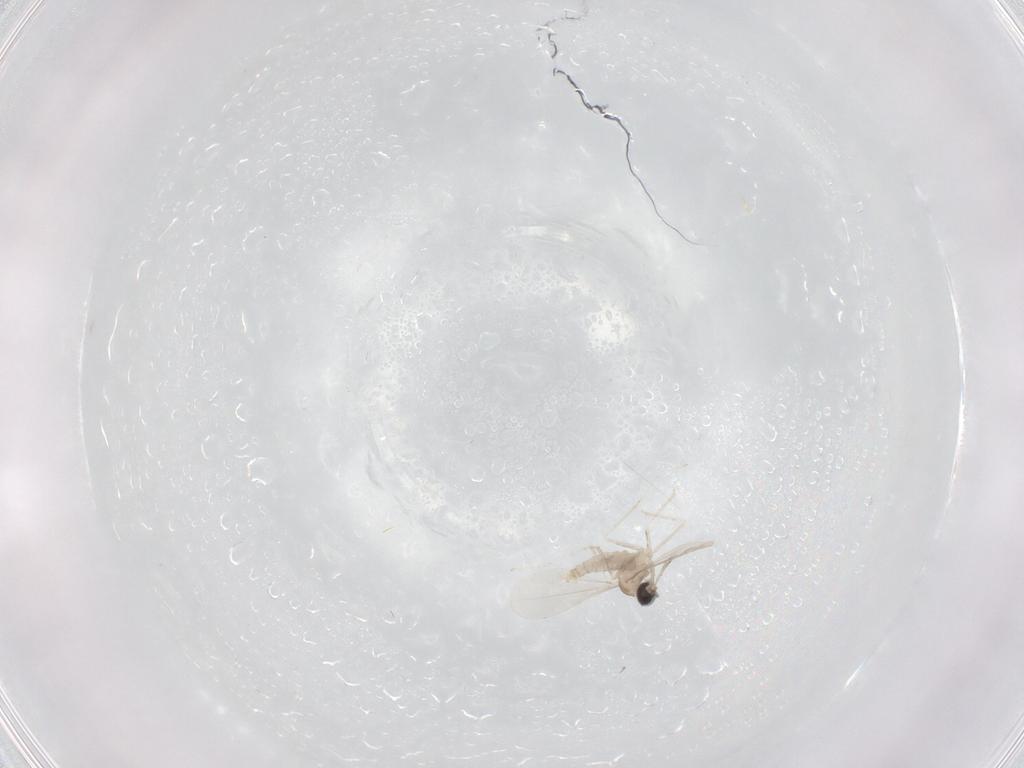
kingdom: Animalia
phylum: Arthropoda
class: Insecta
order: Diptera
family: Cecidomyiidae
